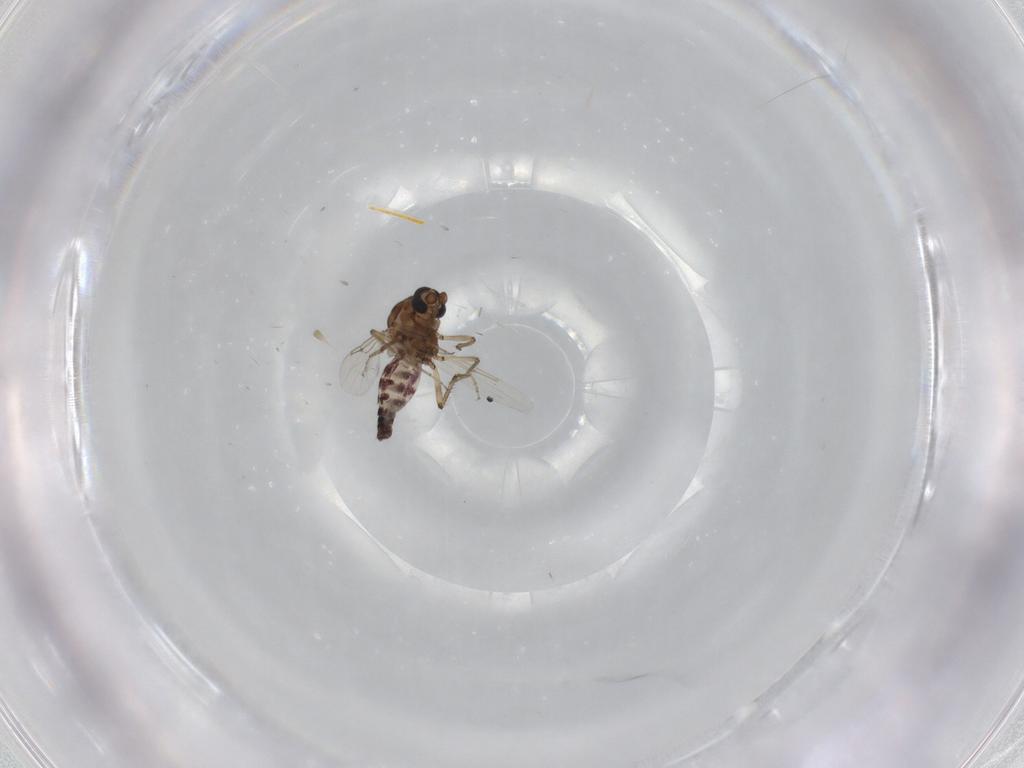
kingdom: Animalia
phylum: Arthropoda
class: Insecta
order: Diptera
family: Ceratopogonidae
